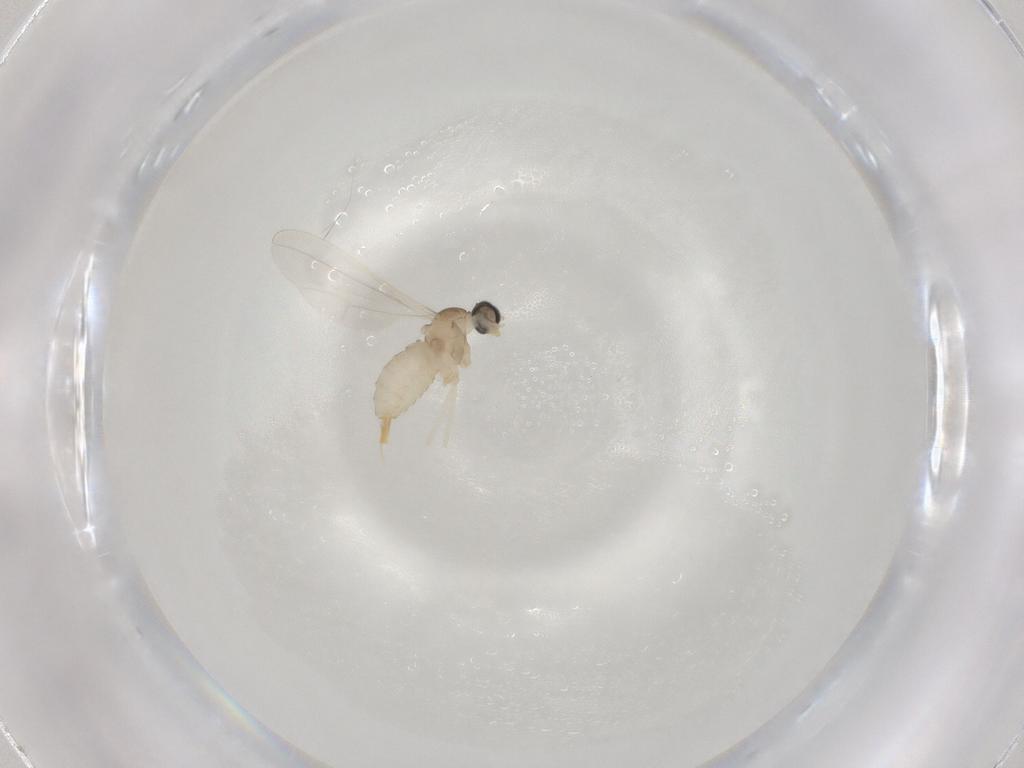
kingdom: Animalia
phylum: Arthropoda
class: Insecta
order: Diptera
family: Cecidomyiidae
